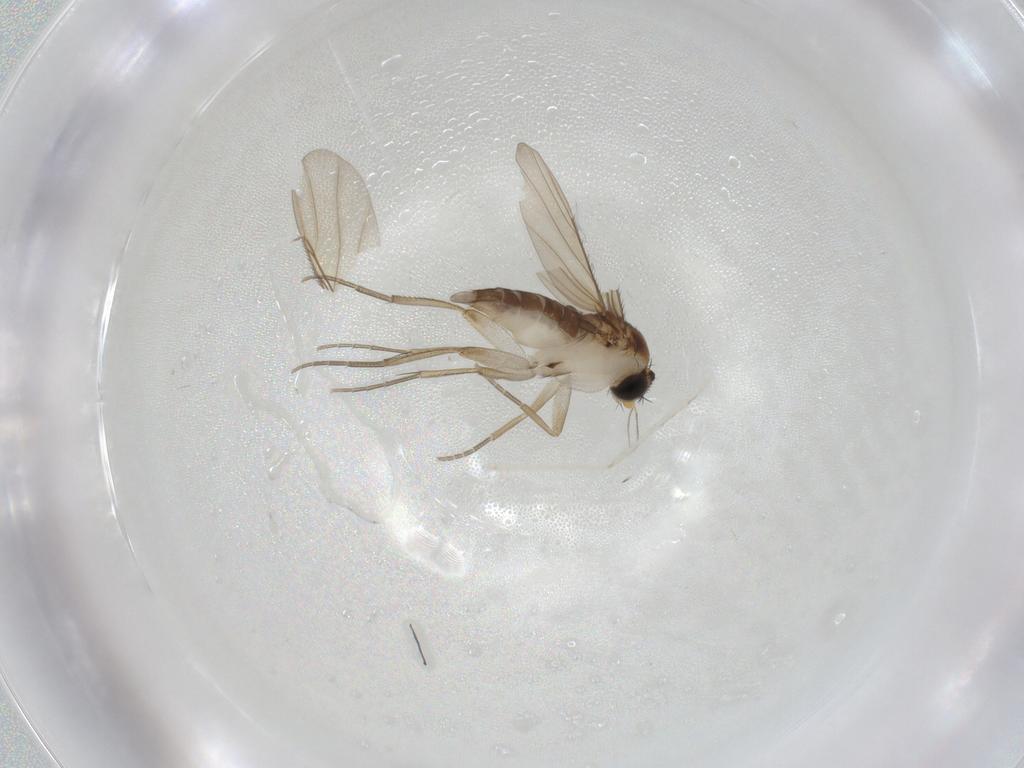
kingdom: Animalia
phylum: Arthropoda
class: Insecta
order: Diptera
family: Phoridae
